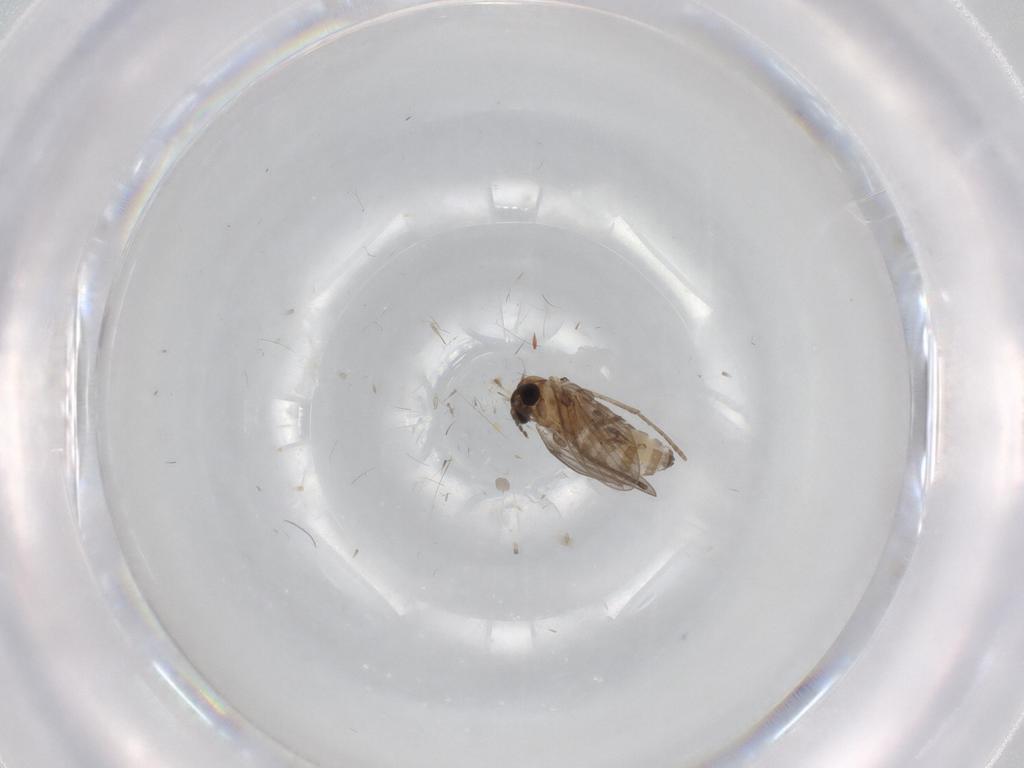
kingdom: Animalia
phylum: Arthropoda
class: Insecta
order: Diptera
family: Cecidomyiidae
